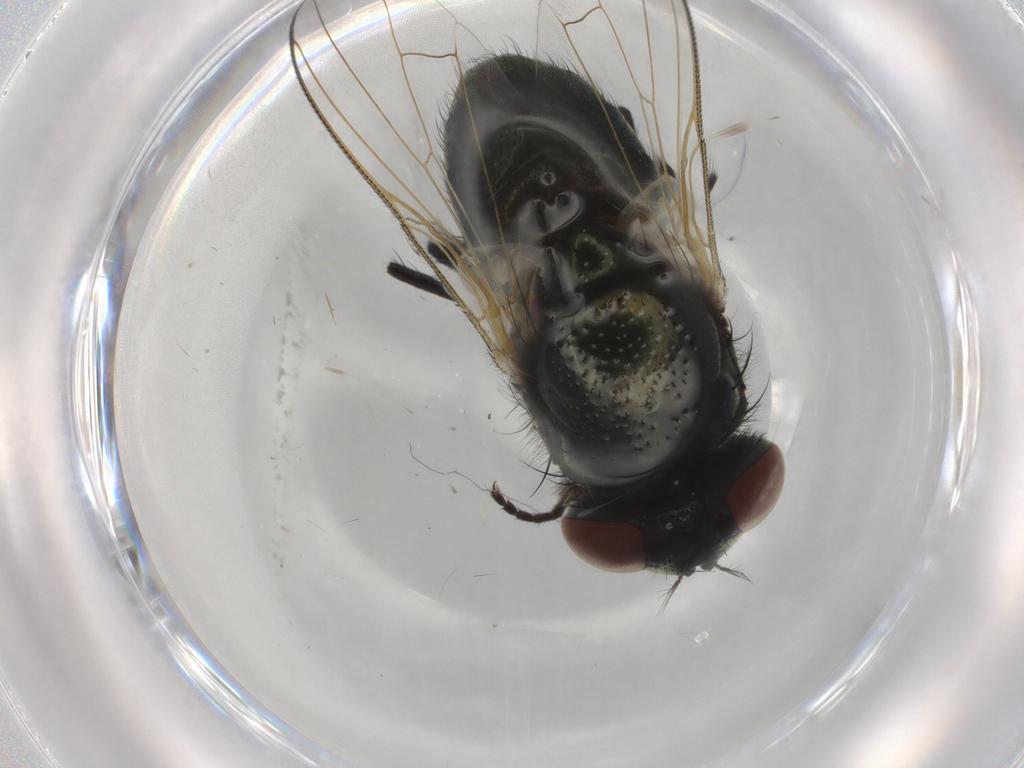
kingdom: Animalia
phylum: Arthropoda
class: Insecta
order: Diptera
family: Muscidae
